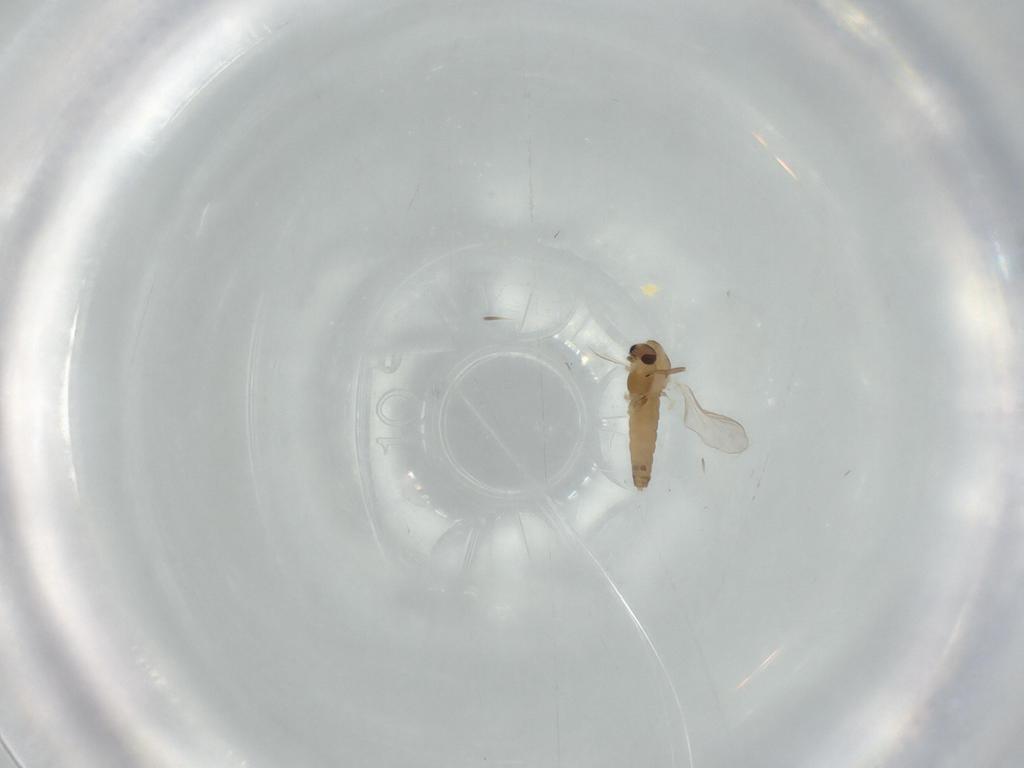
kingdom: Animalia
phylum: Arthropoda
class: Insecta
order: Diptera
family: Chironomidae
